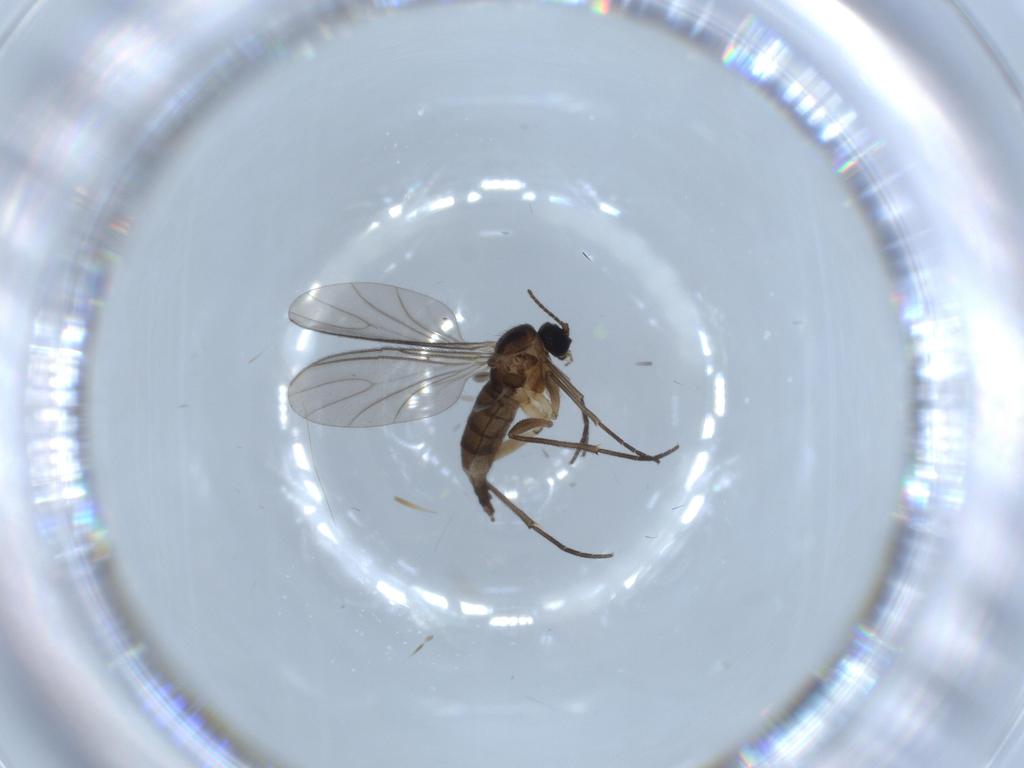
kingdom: Animalia
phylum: Arthropoda
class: Insecta
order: Diptera
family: Sciaridae
